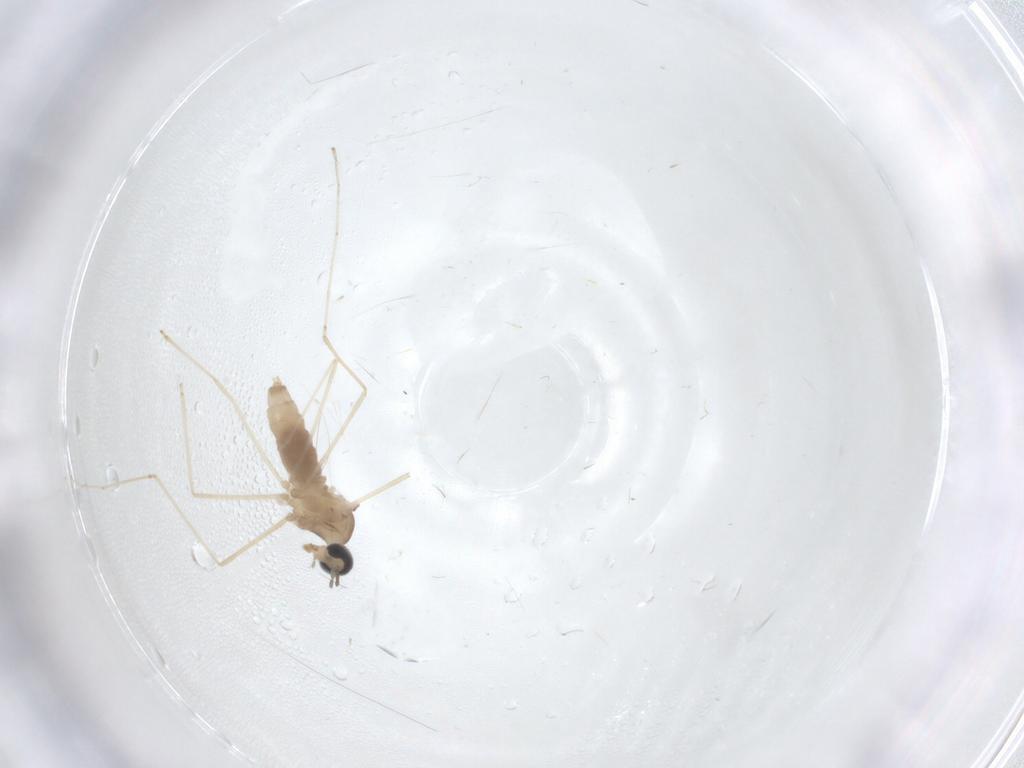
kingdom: Animalia
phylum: Arthropoda
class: Insecta
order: Diptera
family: Cecidomyiidae
